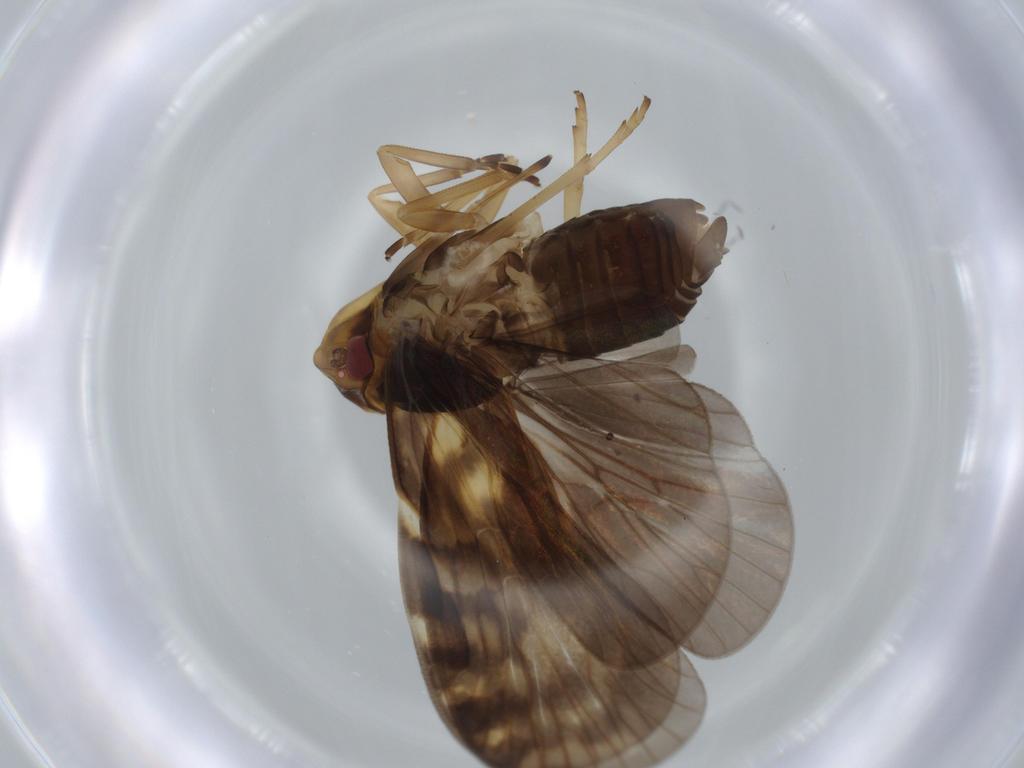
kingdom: Animalia
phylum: Arthropoda
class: Insecta
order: Hemiptera
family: Cixiidae
